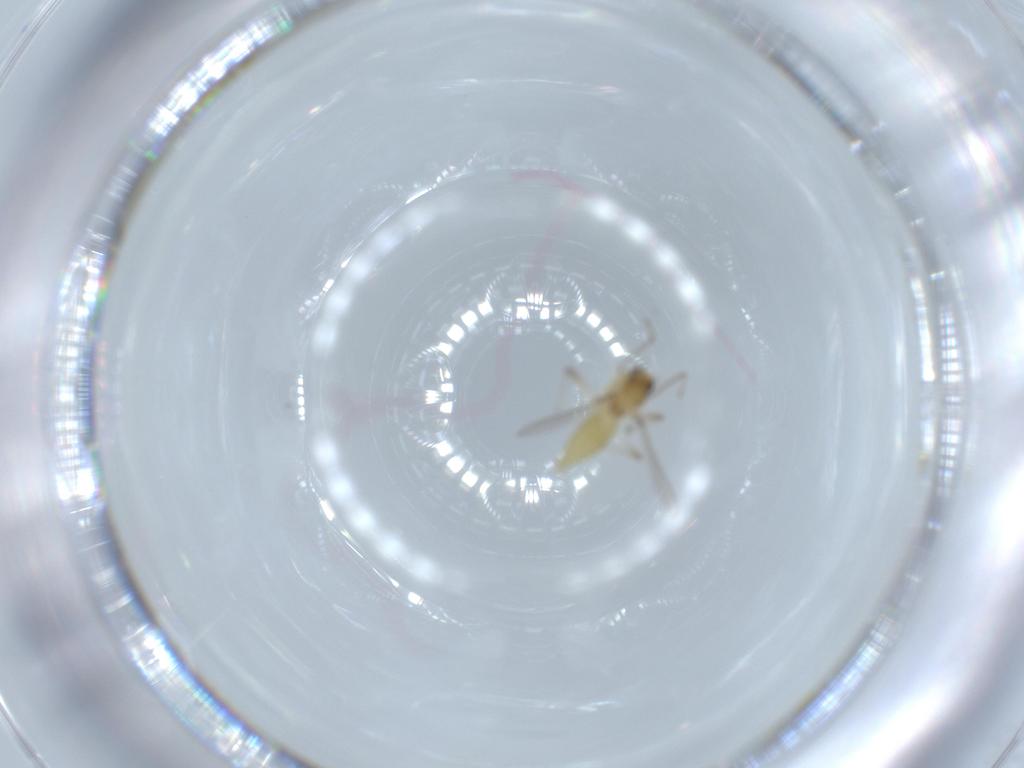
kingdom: Animalia
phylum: Arthropoda
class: Insecta
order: Diptera
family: Chironomidae
